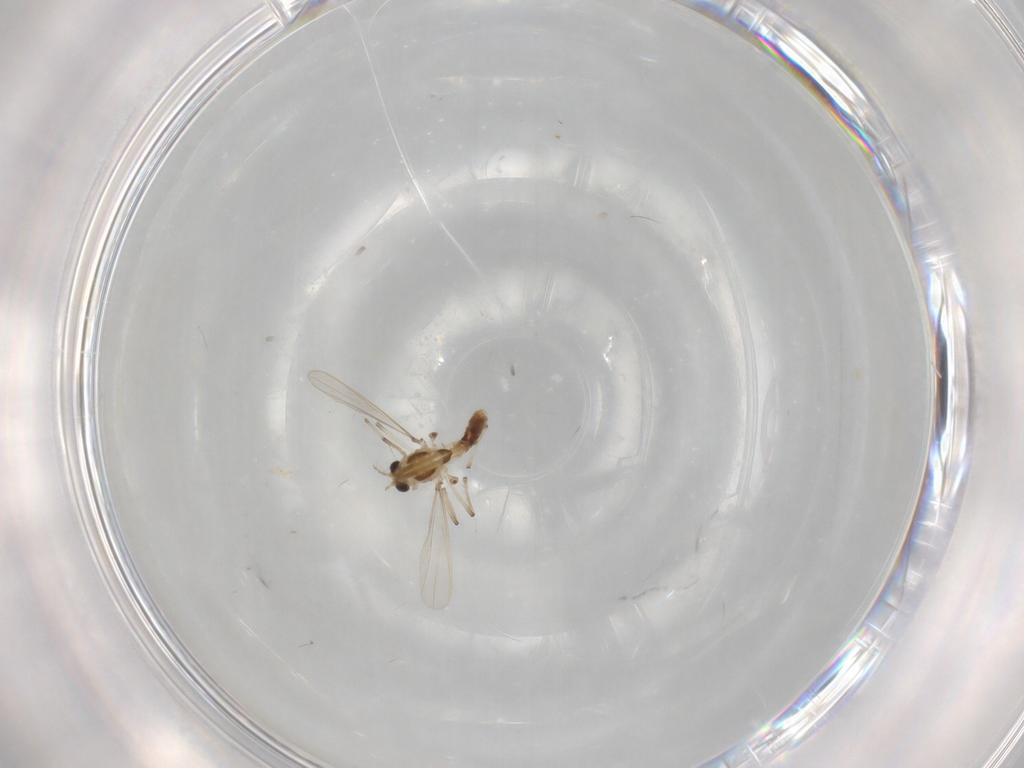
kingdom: Animalia
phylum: Arthropoda
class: Insecta
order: Diptera
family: Chironomidae
